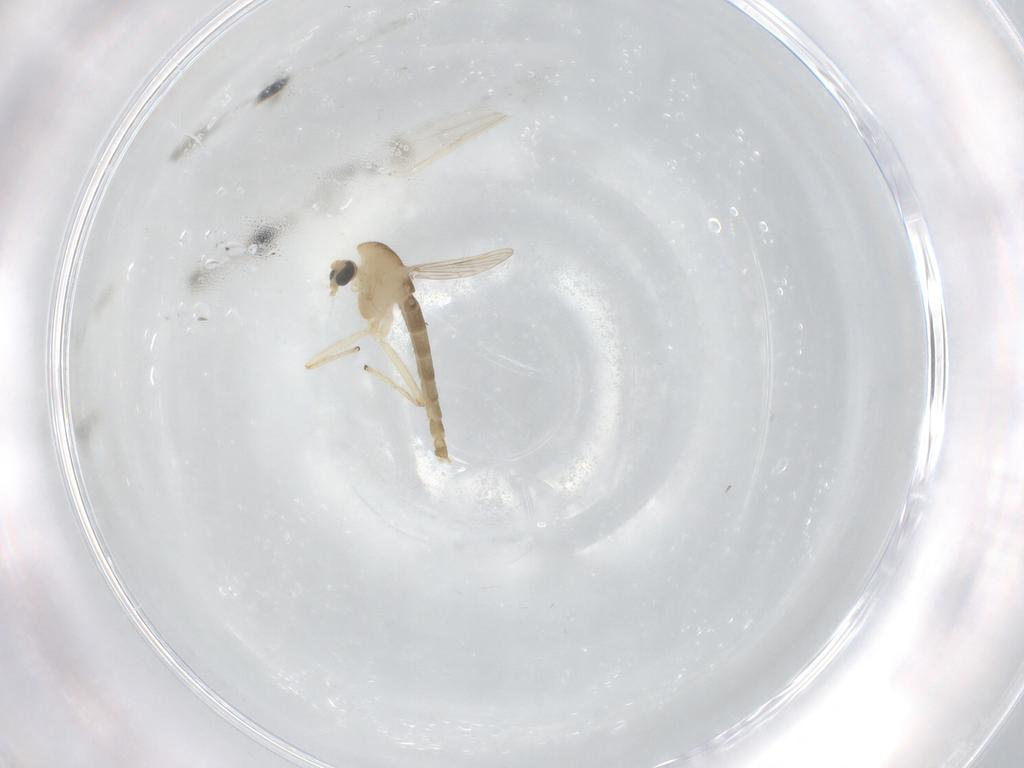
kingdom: Animalia
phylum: Arthropoda
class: Insecta
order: Diptera
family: Chironomidae
